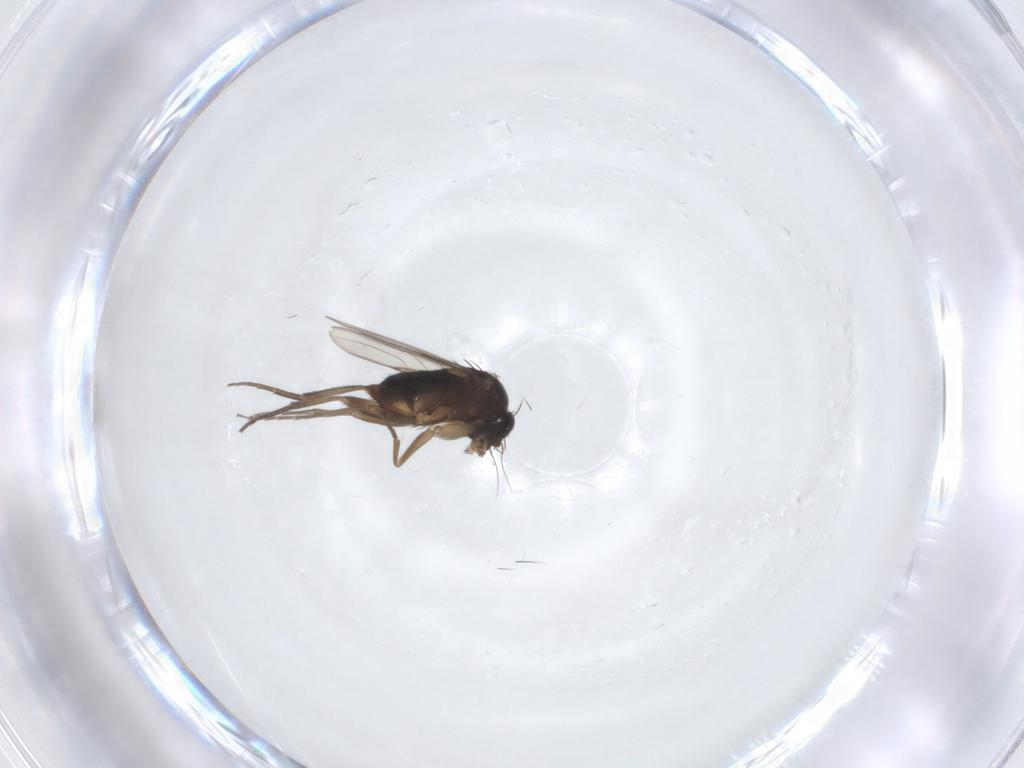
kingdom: Animalia
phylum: Arthropoda
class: Insecta
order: Diptera
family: Phoridae
